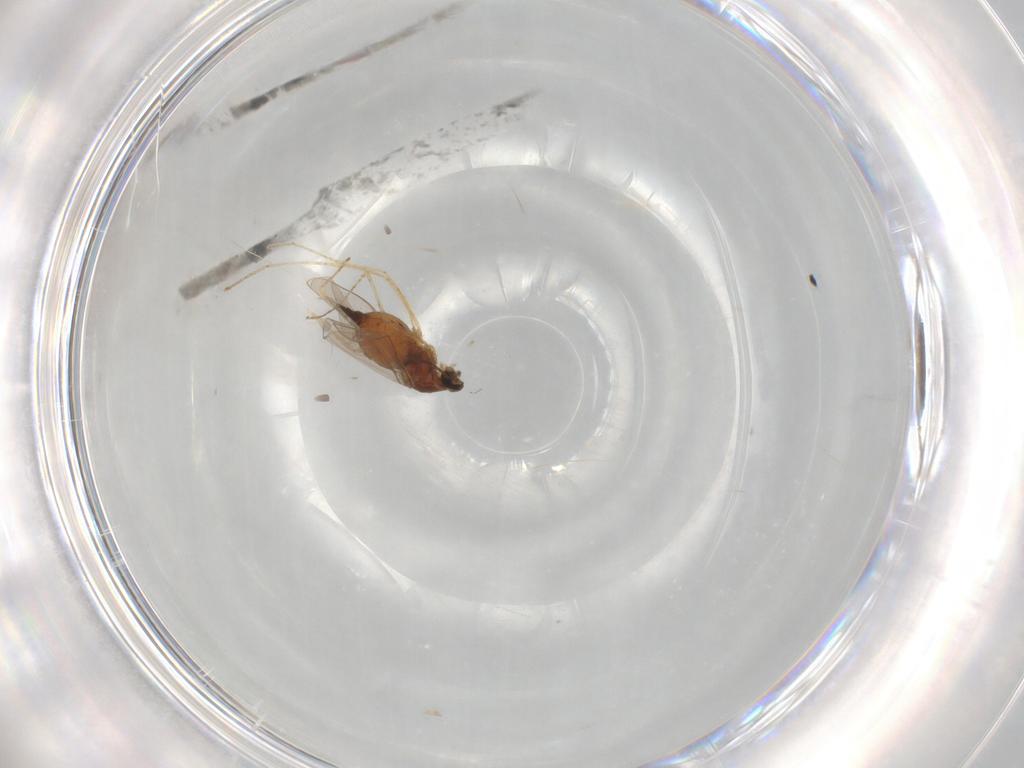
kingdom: Animalia
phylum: Arthropoda
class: Insecta
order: Diptera
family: Cecidomyiidae
